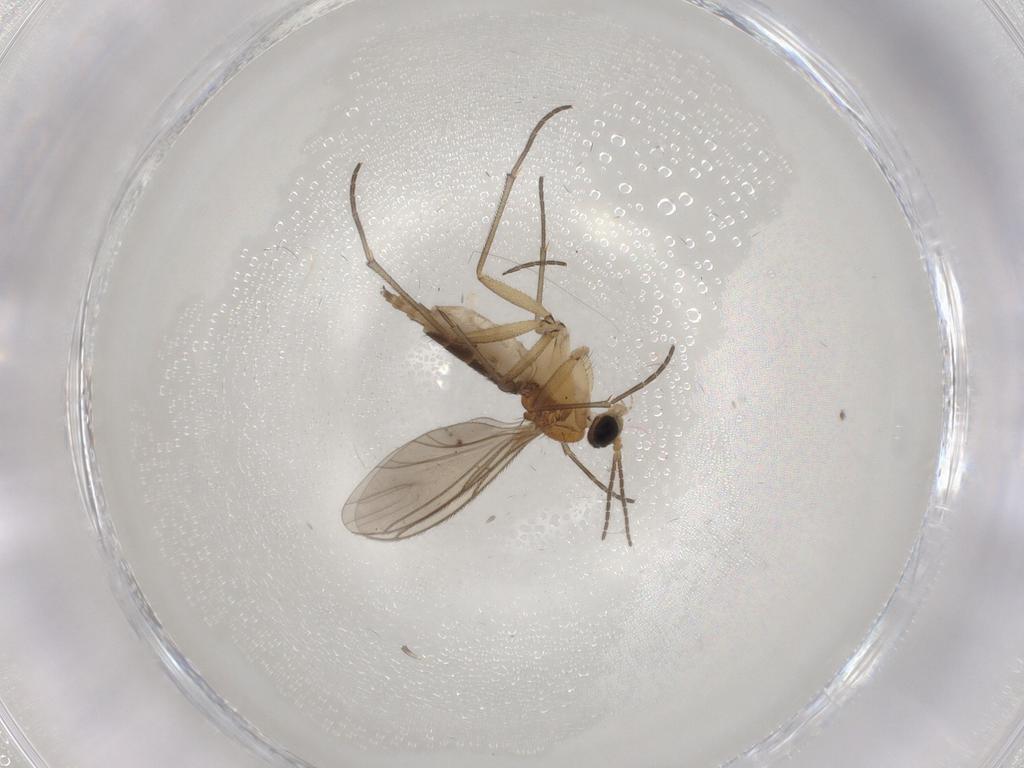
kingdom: Animalia
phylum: Arthropoda
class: Insecta
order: Diptera
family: Sciaridae
